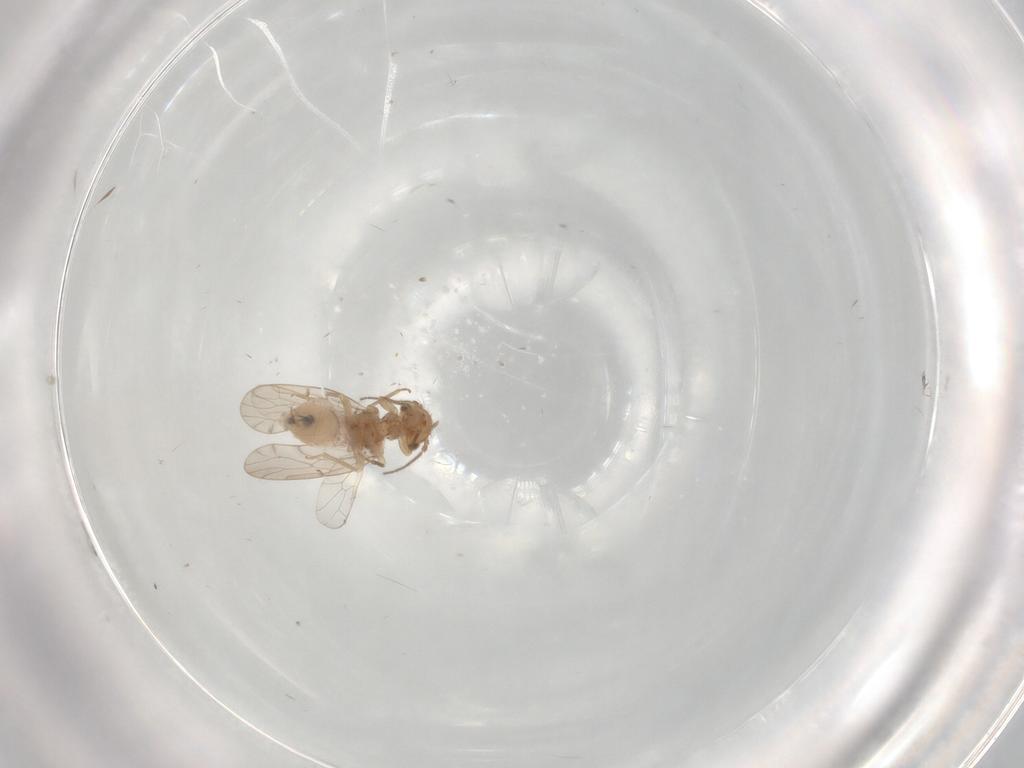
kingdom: Animalia
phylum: Arthropoda
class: Insecta
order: Psocodea
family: Ectopsocidae
